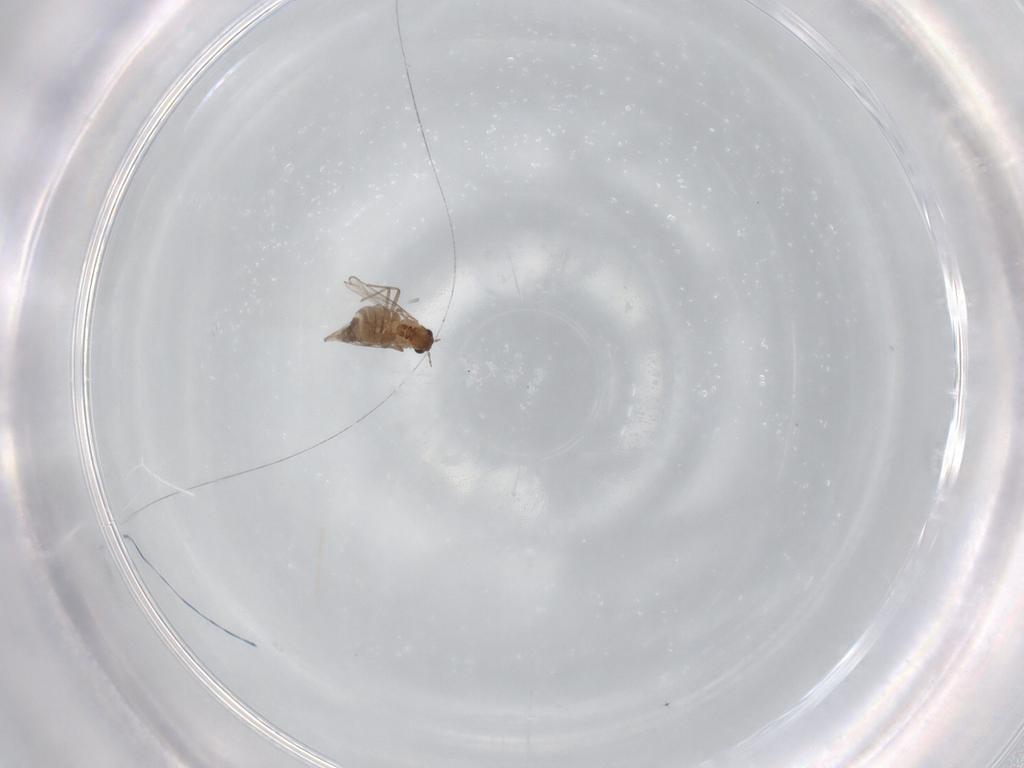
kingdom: Animalia
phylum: Arthropoda
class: Insecta
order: Diptera
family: Chironomidae
